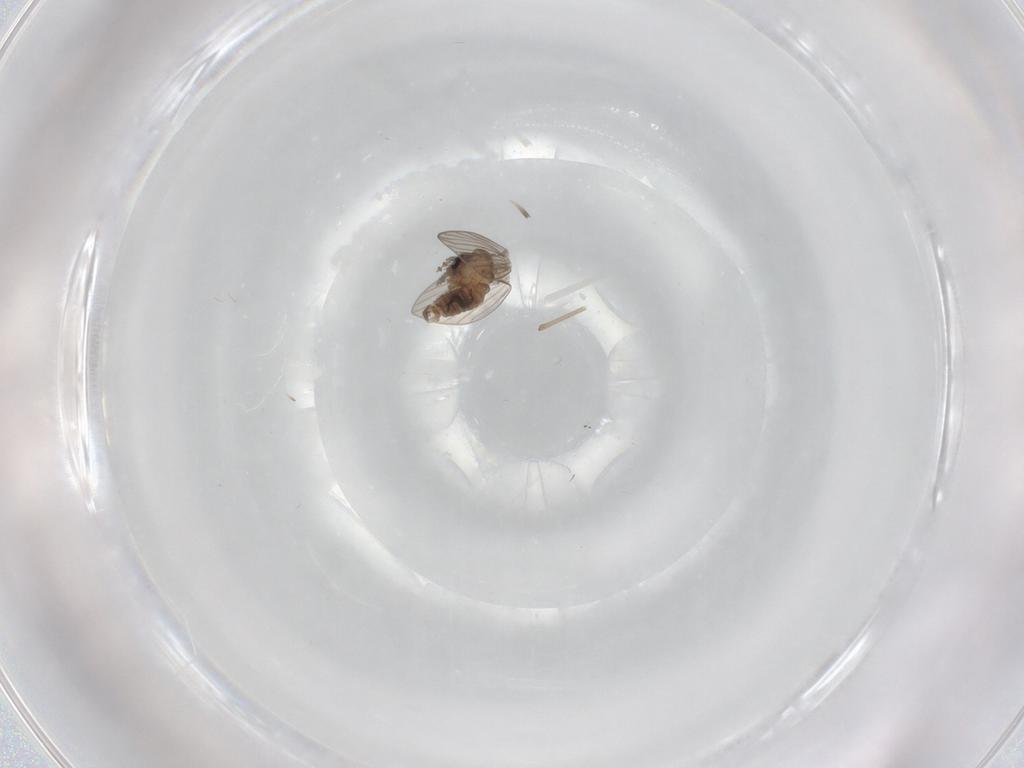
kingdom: Animalia
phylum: Arthropoda
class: Insecta
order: Diptera
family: Psychodidae
